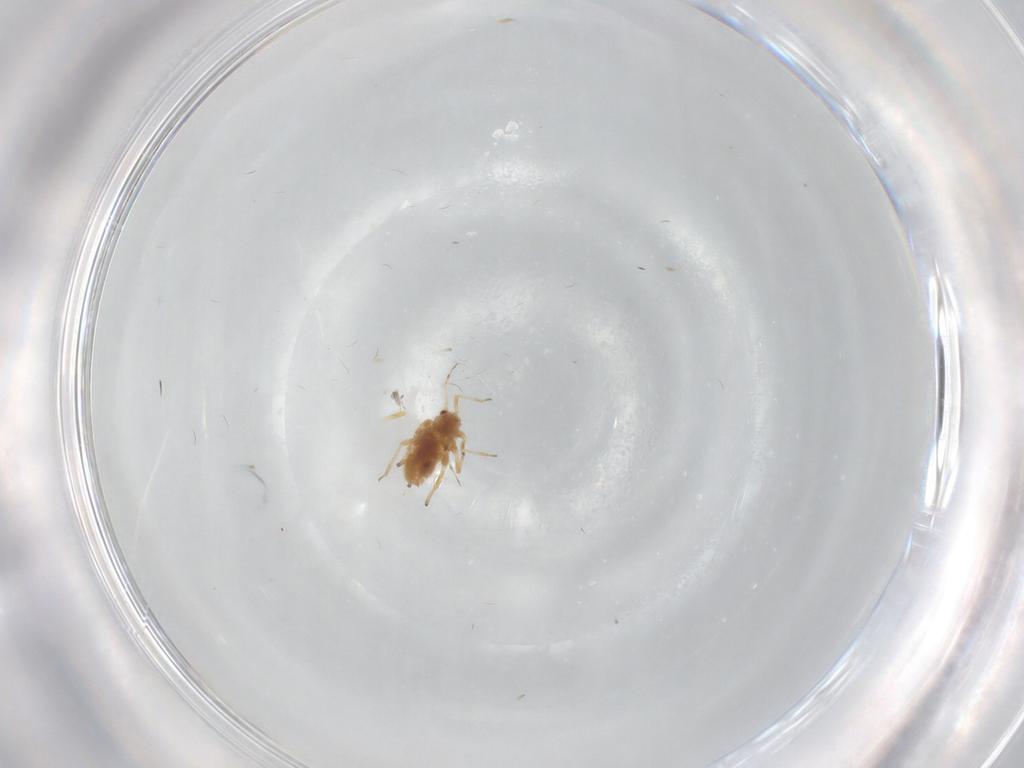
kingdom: Animalia
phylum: Arthropoda
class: Insecta
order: Hemiptera
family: Aphididae
